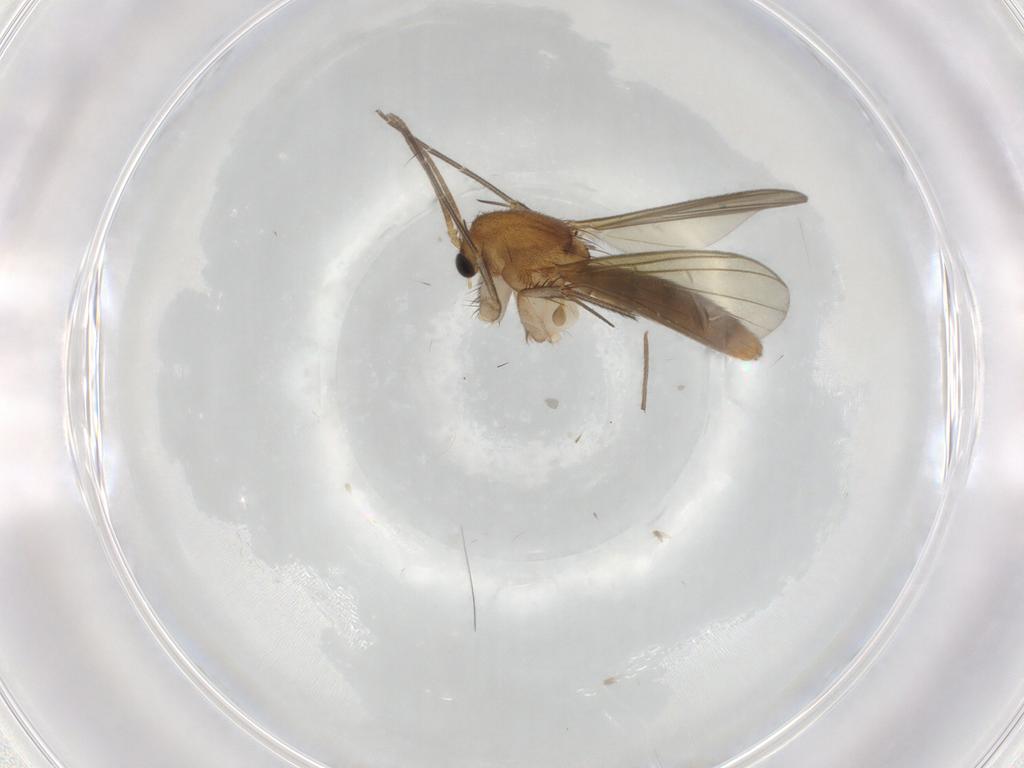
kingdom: Animalia
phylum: Arthropoda
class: Insecta
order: Diptera
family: Mycetophilidae
